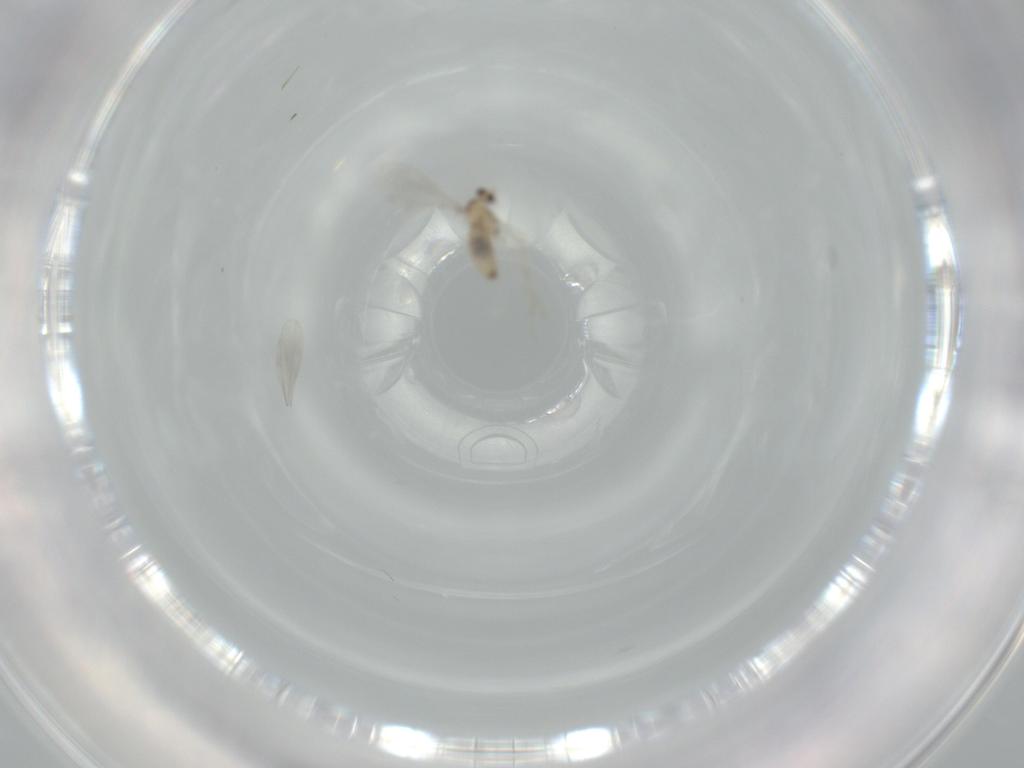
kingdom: Animalia
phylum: Arthropoda
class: Insecta
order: Diptera
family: Cecidomyiidae
